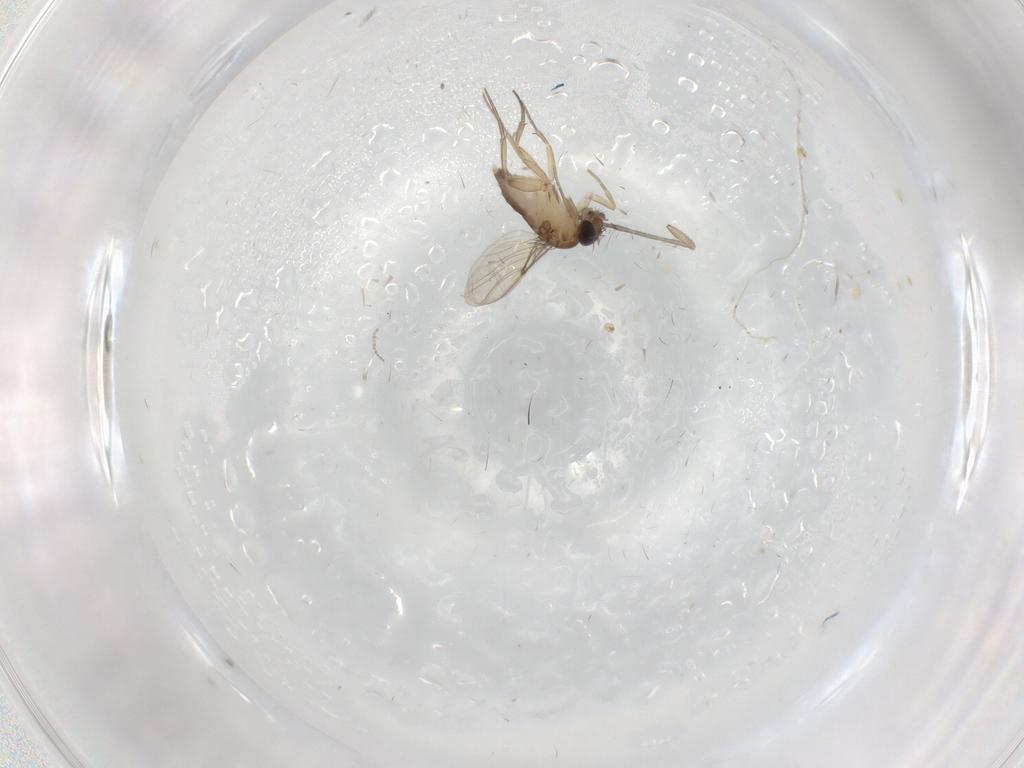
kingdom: Animalia
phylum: Arthropoda
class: Insecta
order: Diptera
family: Sciaridae
